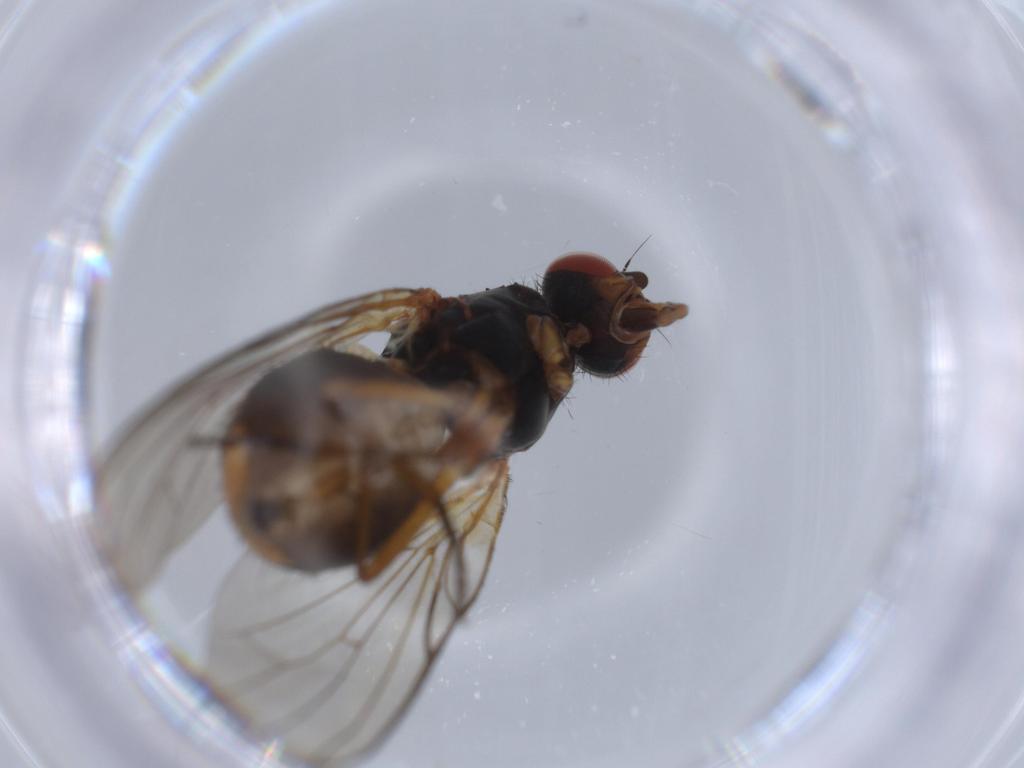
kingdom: Animalia
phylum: Arthropoda
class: Insecta
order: Diptera
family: Anthomyiidae
